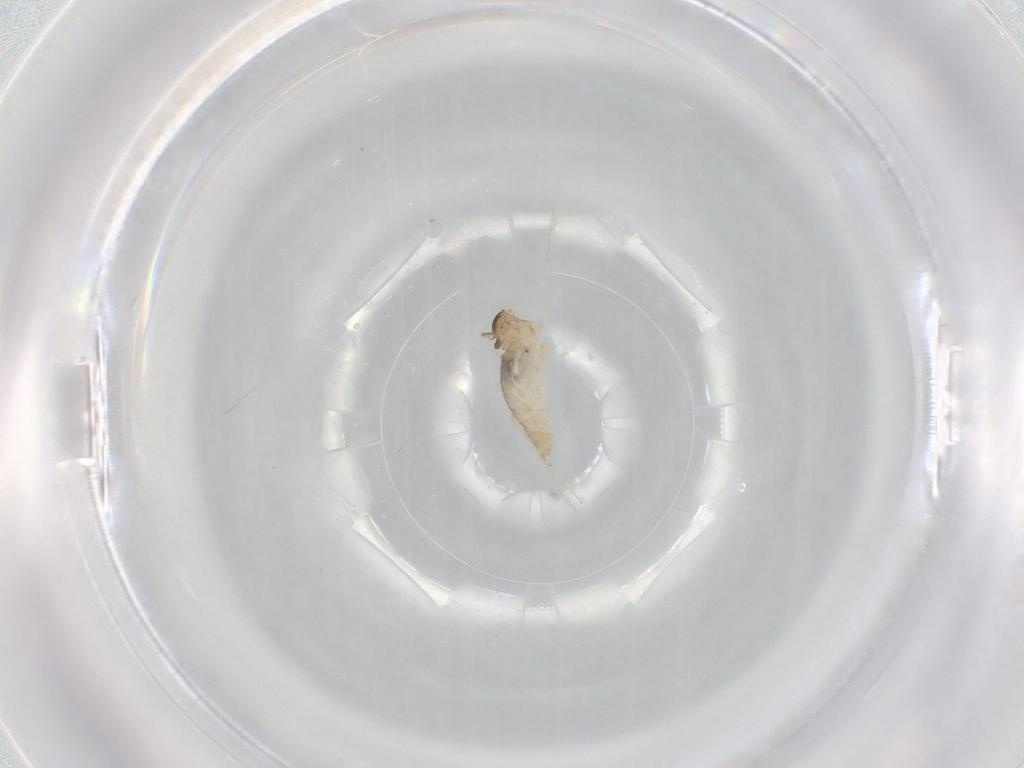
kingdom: Animalia
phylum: Arthropoda
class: Insecta
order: Diptera
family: Cecidomyiidae
